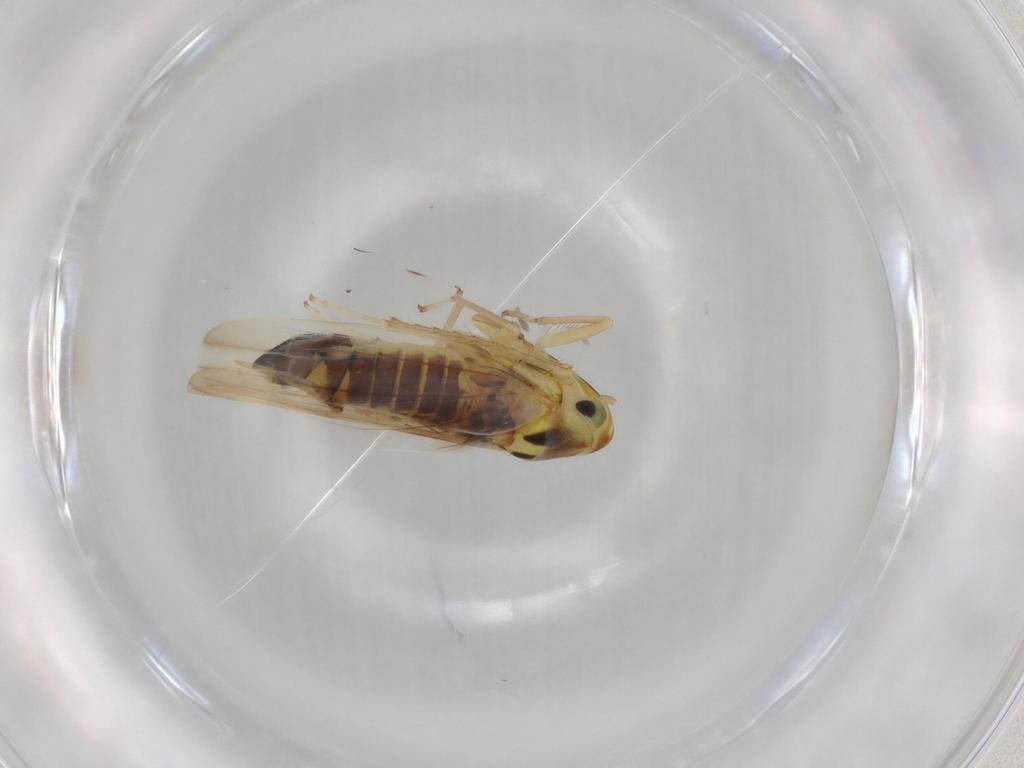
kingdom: Animalia
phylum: Arthropoda
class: Insecta
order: Hemiptera
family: Cicadellidae
